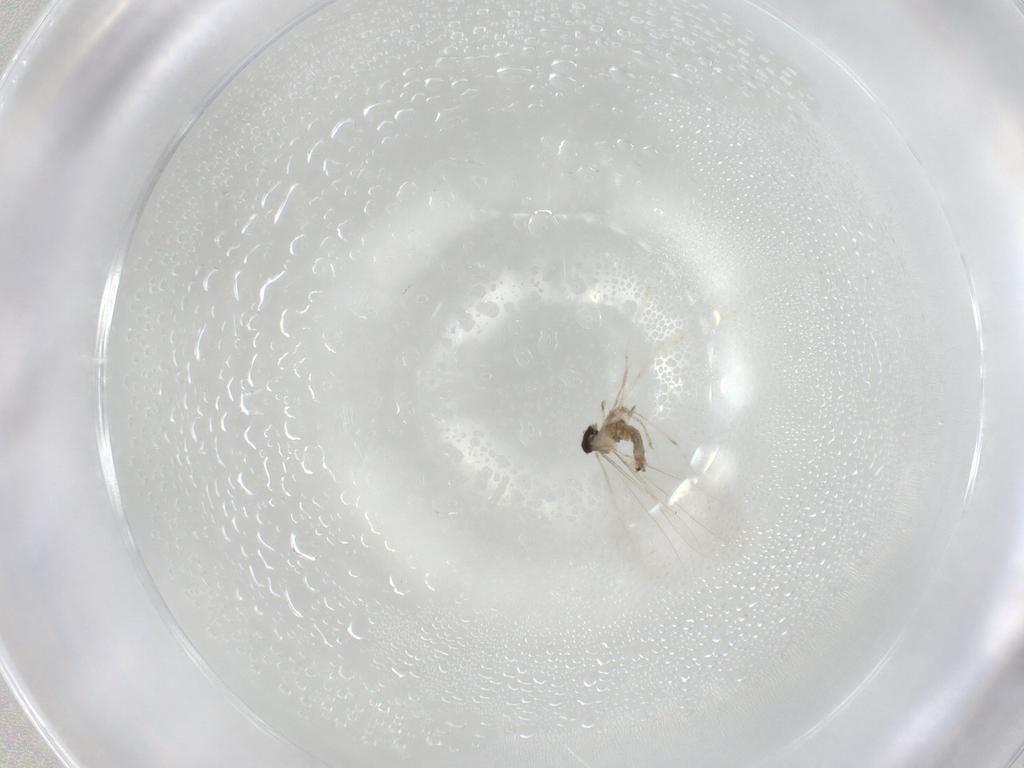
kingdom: Animalia
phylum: Arthropoda
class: Insecta
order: Diptera
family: Cecidomyiidae
